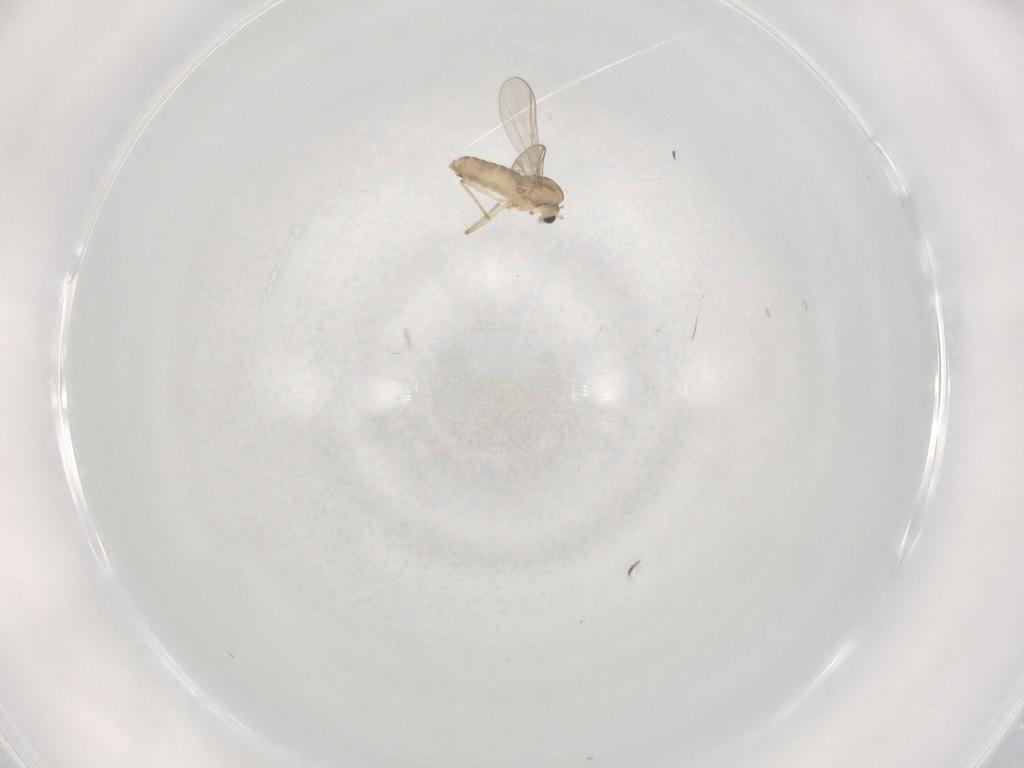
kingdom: Animalia
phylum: Arthropoda
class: Insecta
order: Diptera
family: Chironomidae
